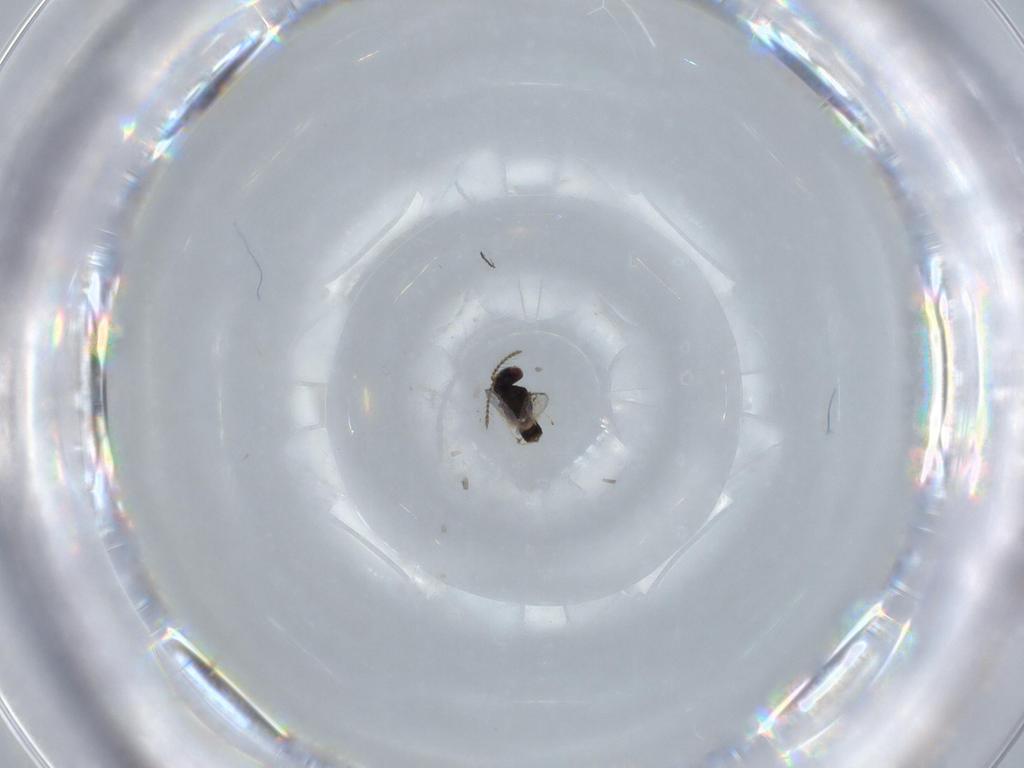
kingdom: Animalia
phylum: Arthropoda
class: Insecta
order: Hymenoptera
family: Pteromalidae
